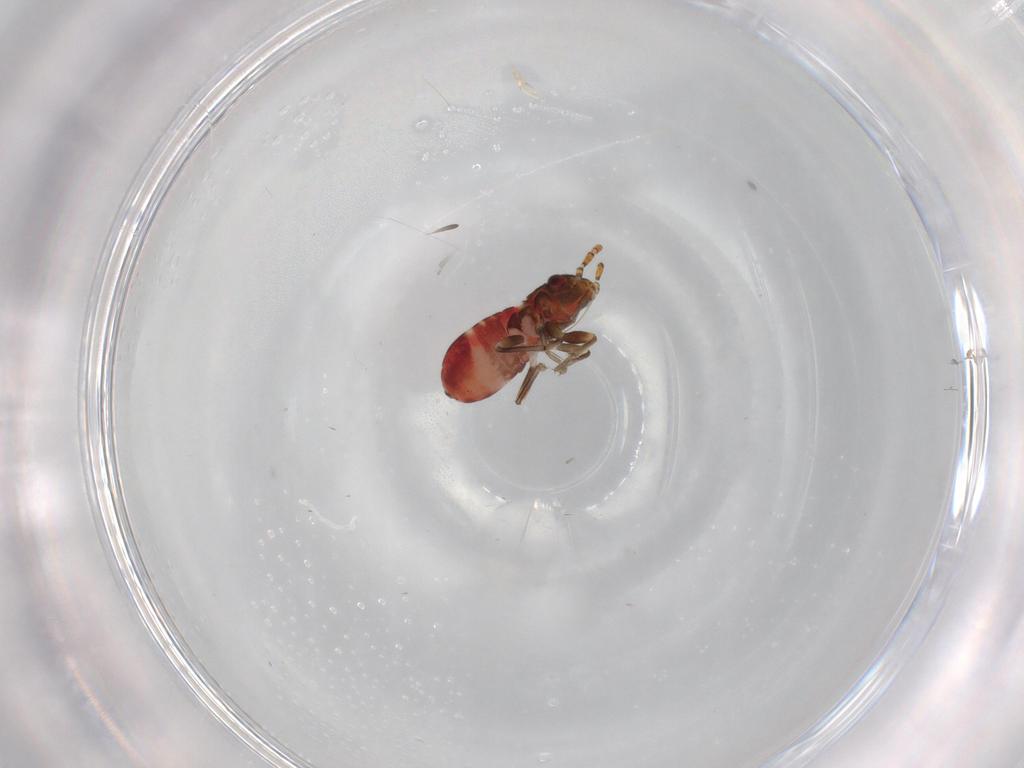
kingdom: Animalia
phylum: Arthropoda
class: Insecta
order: Hemiptera
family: Rhyparochromidae
